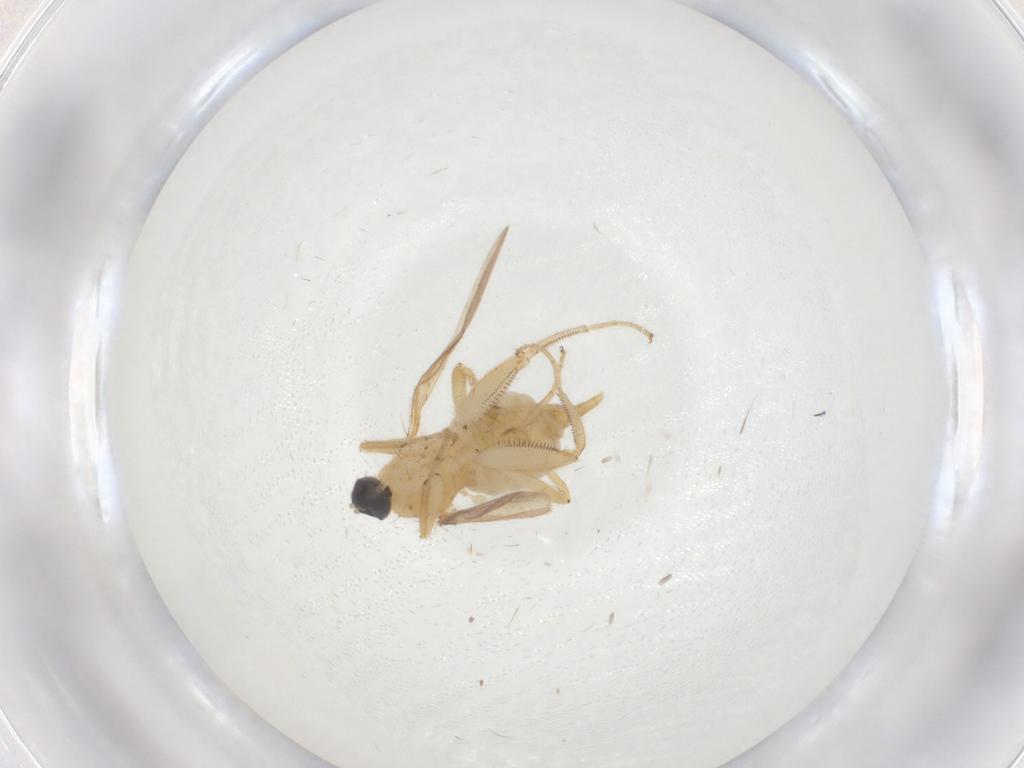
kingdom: Animalia
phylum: Arthropoda
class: Insecta
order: Diptera
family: Cecidomyiidae
